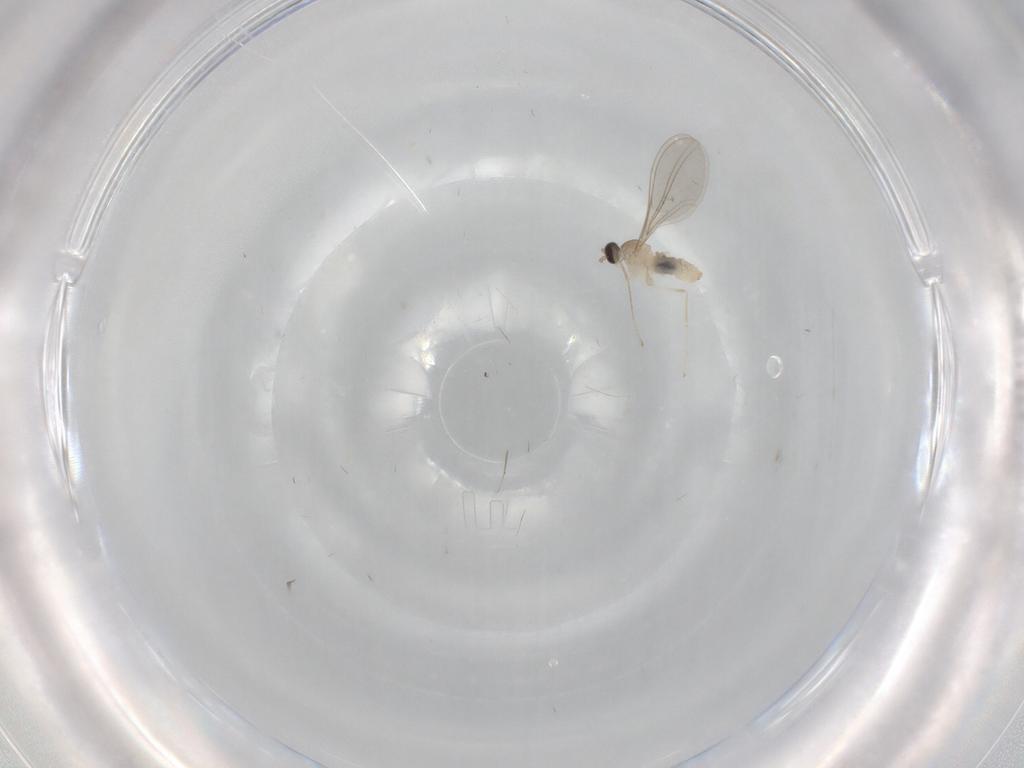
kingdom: Animalia
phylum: Arthropoda
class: Insecta
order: Diptera
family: Cecidomyiidae
